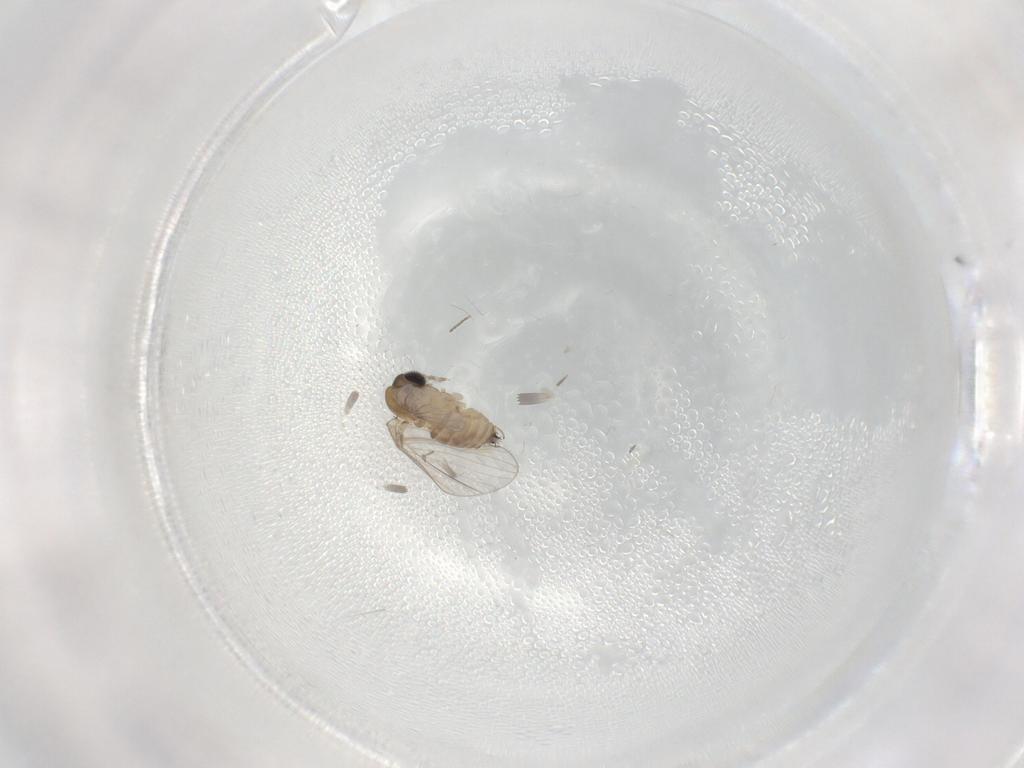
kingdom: Animalia
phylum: Arthropoda
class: Insecta
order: Diptera
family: Psychodidae
